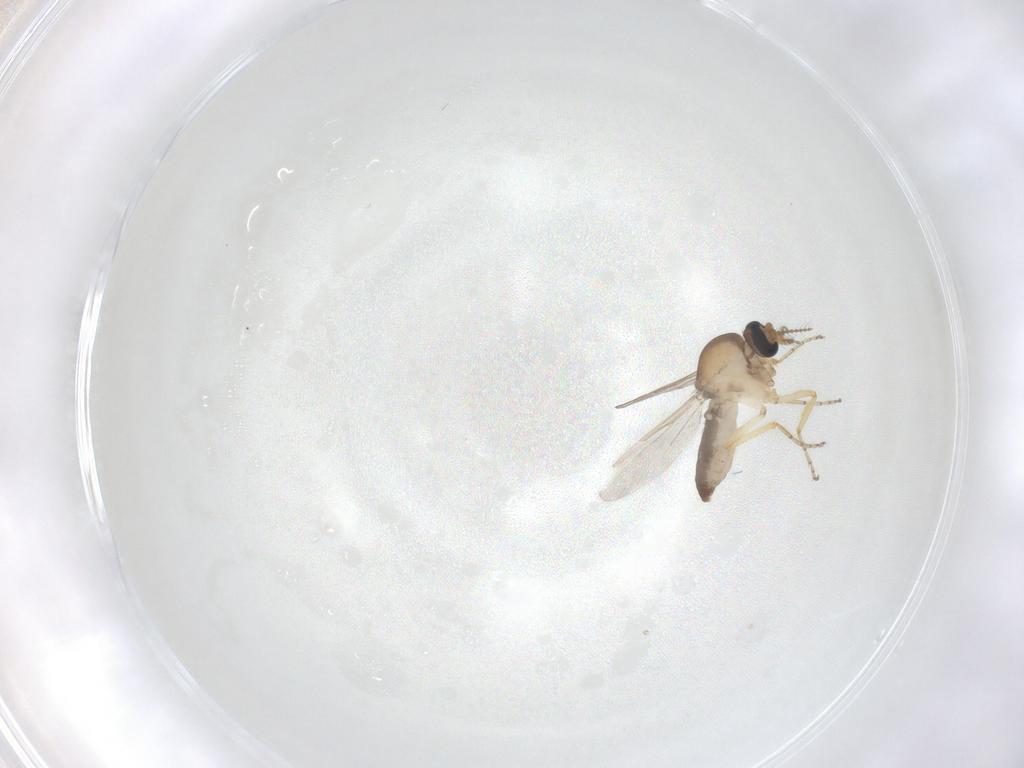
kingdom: Animalia
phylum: Arthropoda
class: Insecta
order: Diptera
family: Ceratopogonidae
